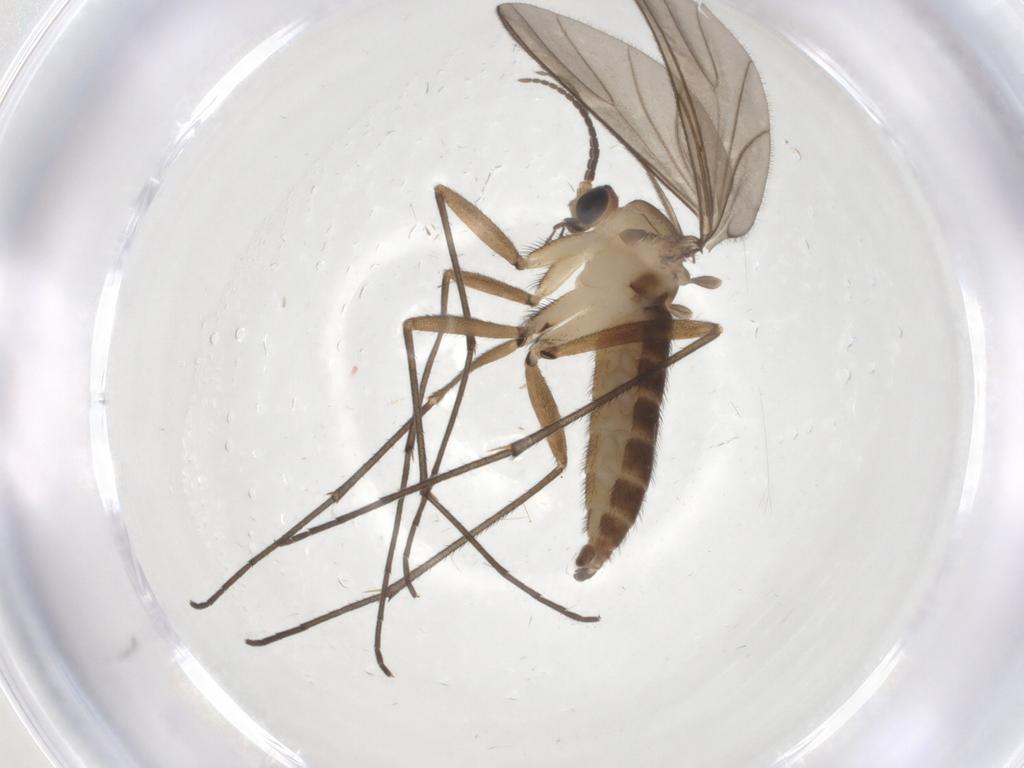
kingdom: Animalia
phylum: Arthropoda
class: Insecta
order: Diptera
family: Sciaridae
